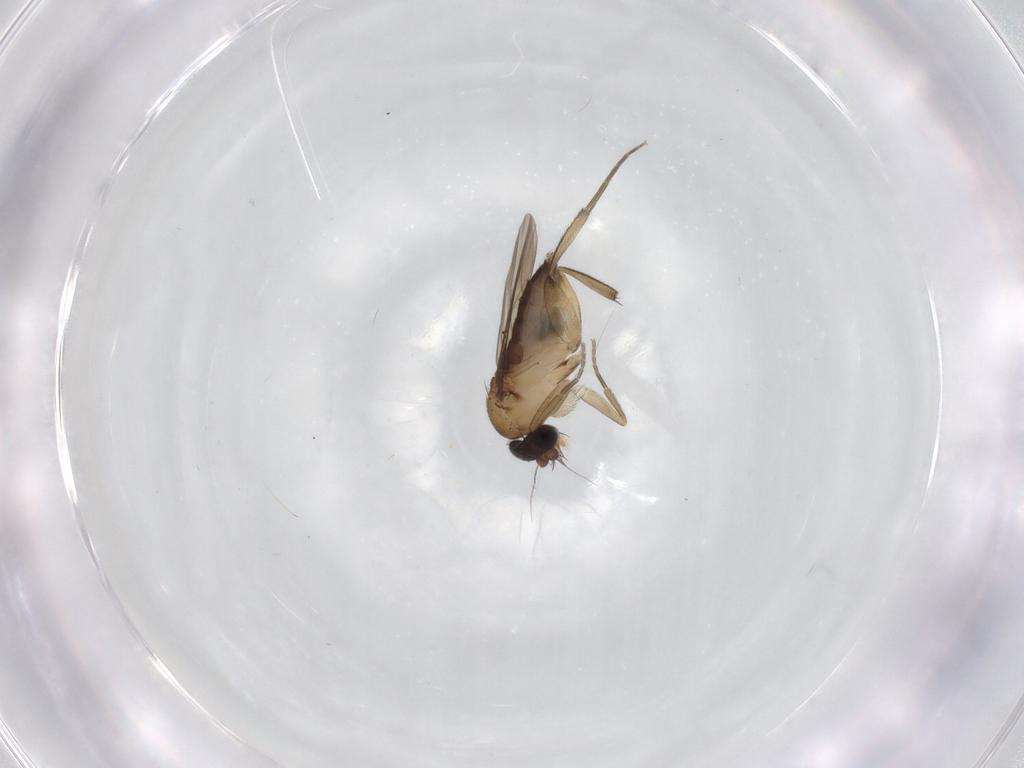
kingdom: Animalia
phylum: Arthropoda
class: Insecta
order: Diptera
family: Phoridae
